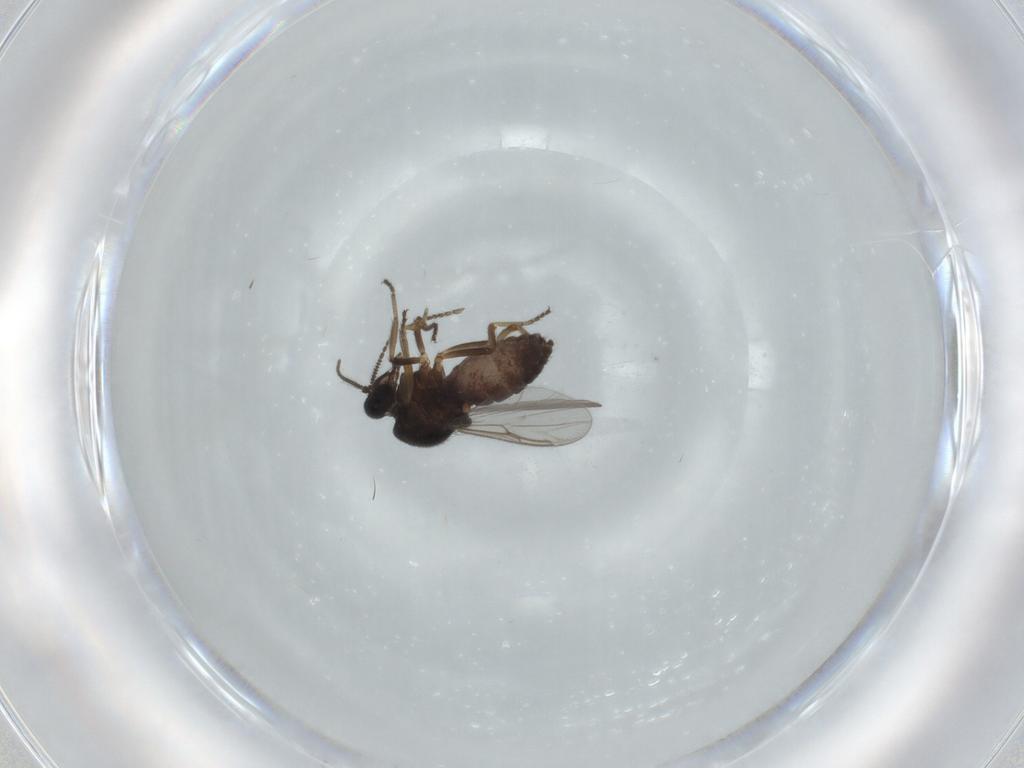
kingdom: Animalia
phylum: Arthropoda
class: Insecta
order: Diptera
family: Ceratopogonidae
